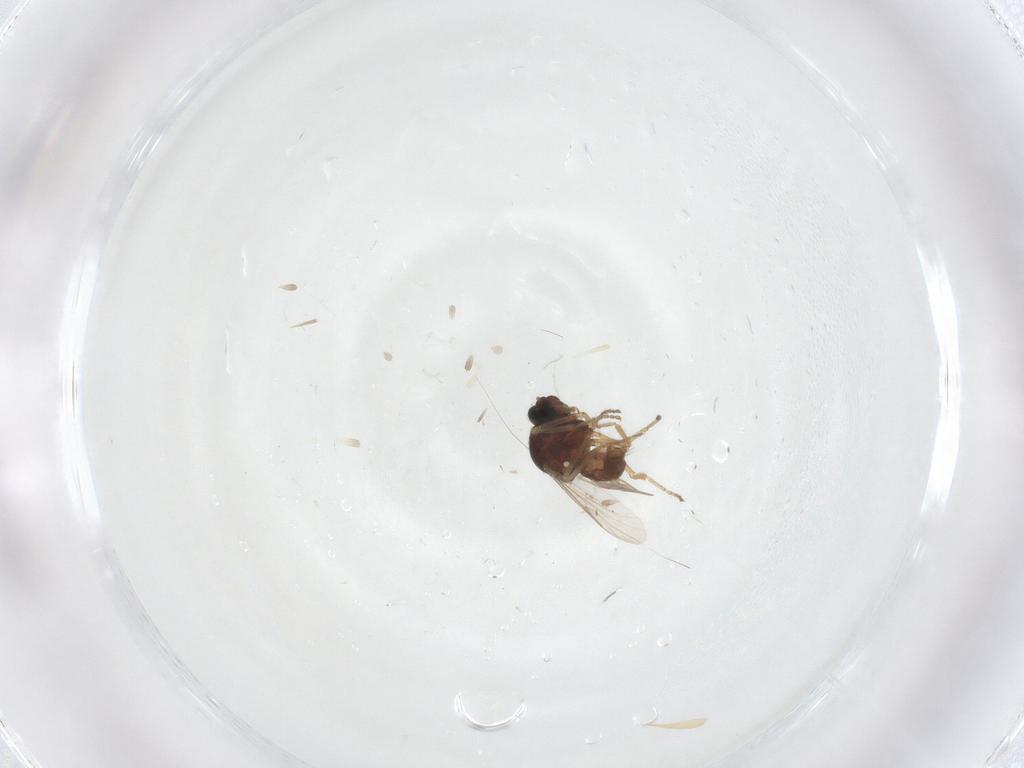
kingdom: Animalia
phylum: Arthropoda
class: Insecta
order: Diptera
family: Ceratopogonidae
